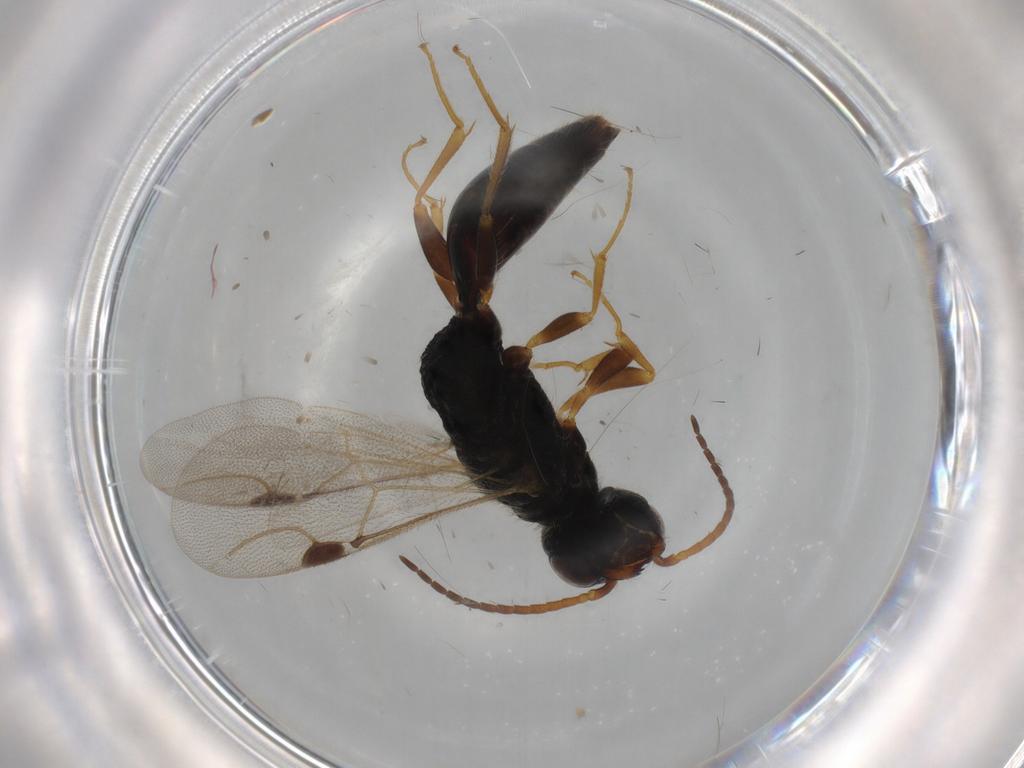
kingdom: Animalia
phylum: Arthropoda
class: Insecta
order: Hymenoptera
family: Bethylidae
